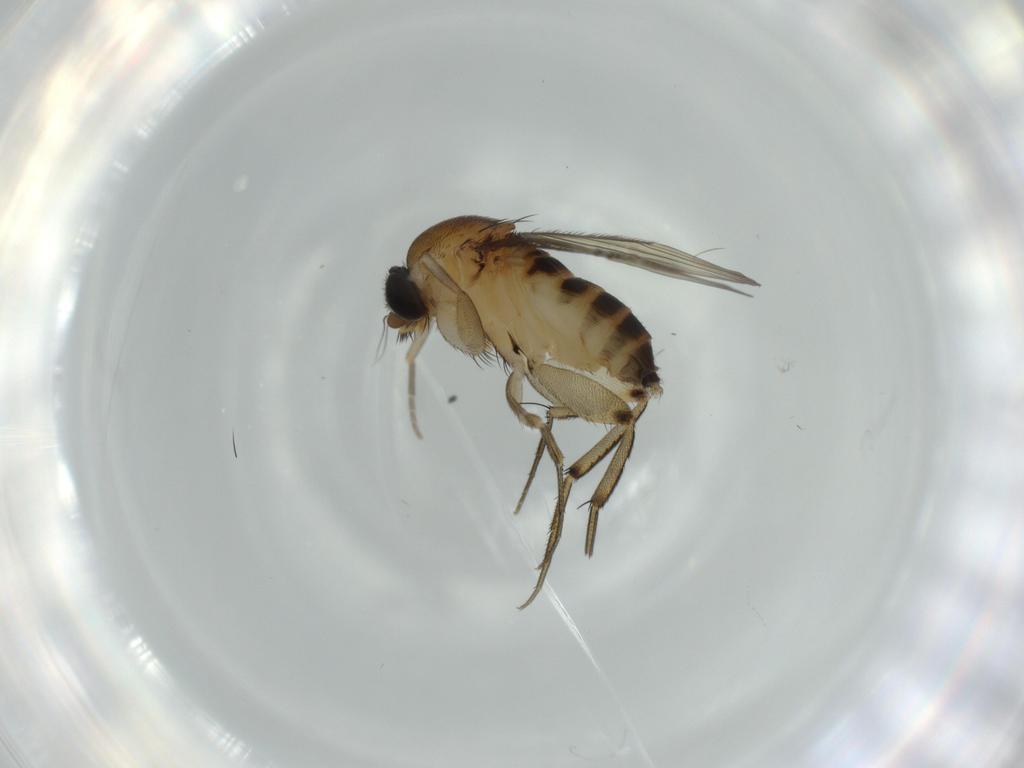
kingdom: Animalia
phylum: Arthropoda
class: Insecta
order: Diptera
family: Phoridae
